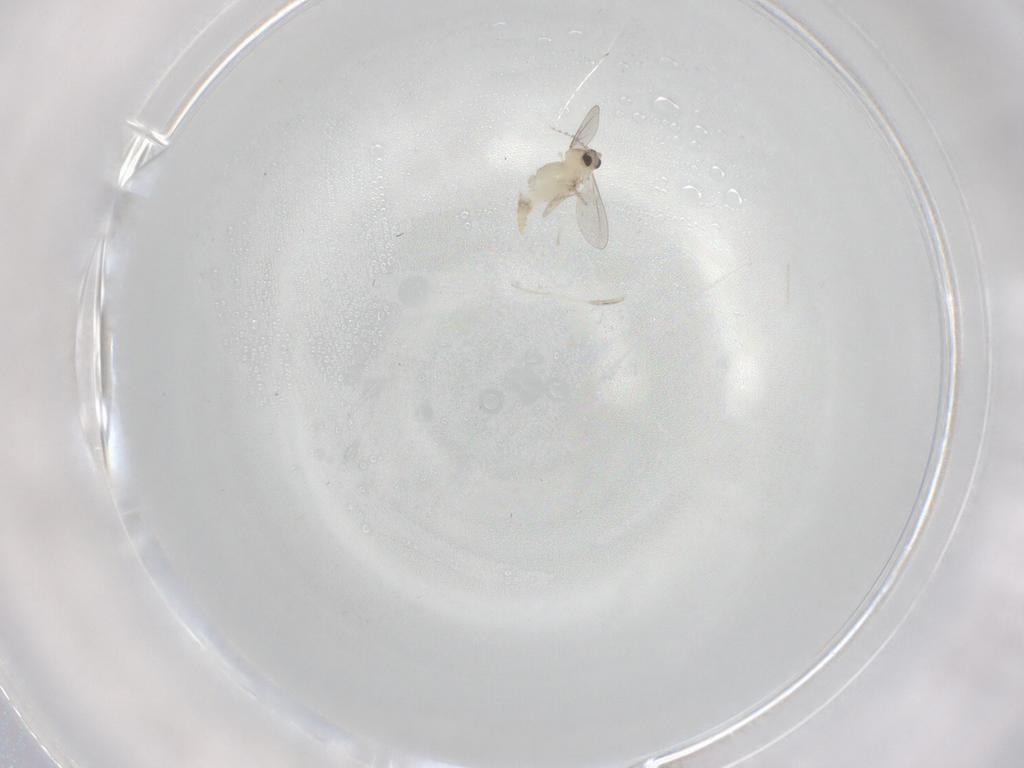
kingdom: Animalia
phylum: Arthropoda
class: Insecta
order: Diptera
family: Cecidomyiidae
